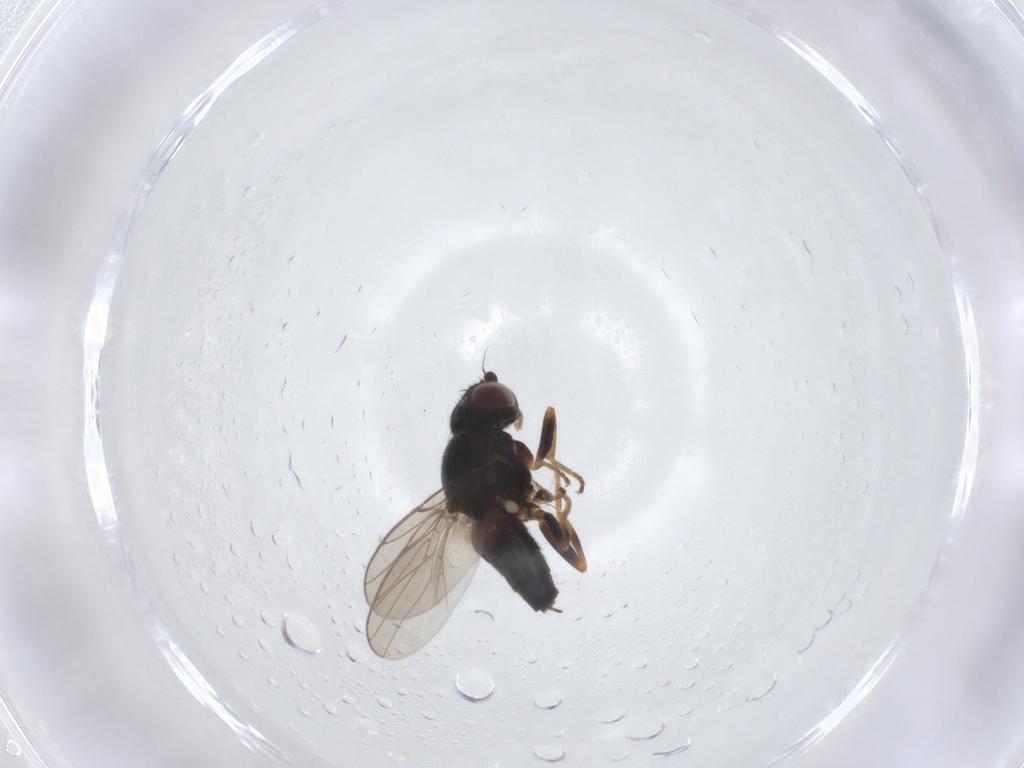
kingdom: Animalia
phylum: Arthropoda
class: Insecta
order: Diptera
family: Chloropidae
